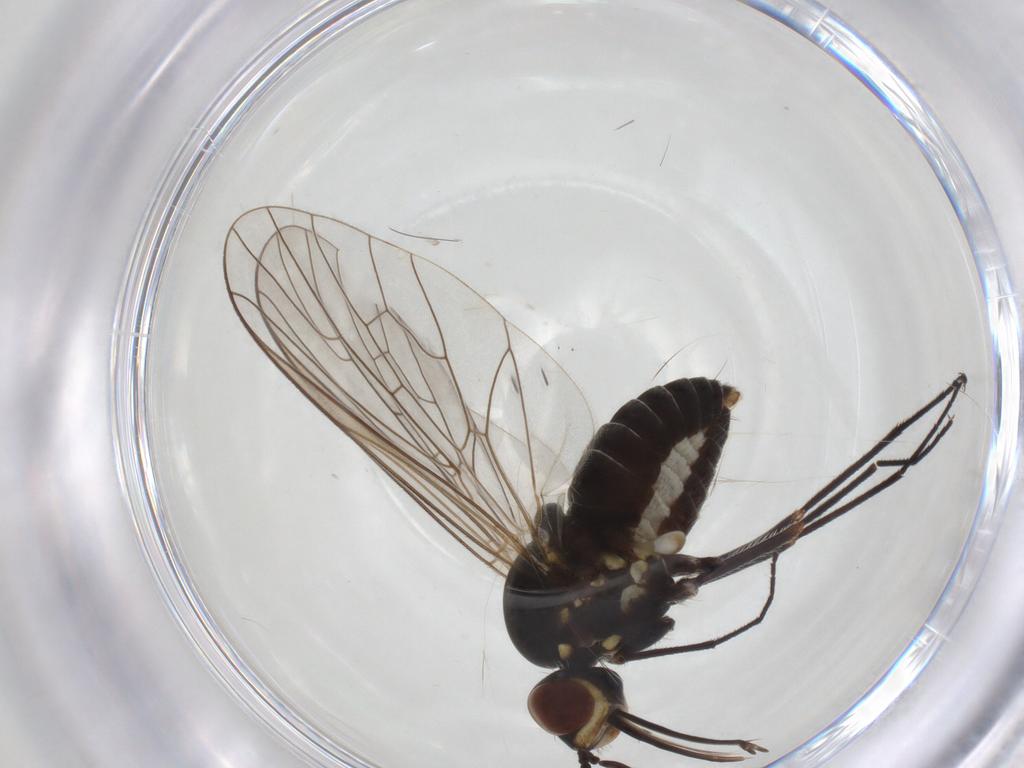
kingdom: Animalia
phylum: Arthropoda
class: Insecta
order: Diptera
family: Bombyliidae
